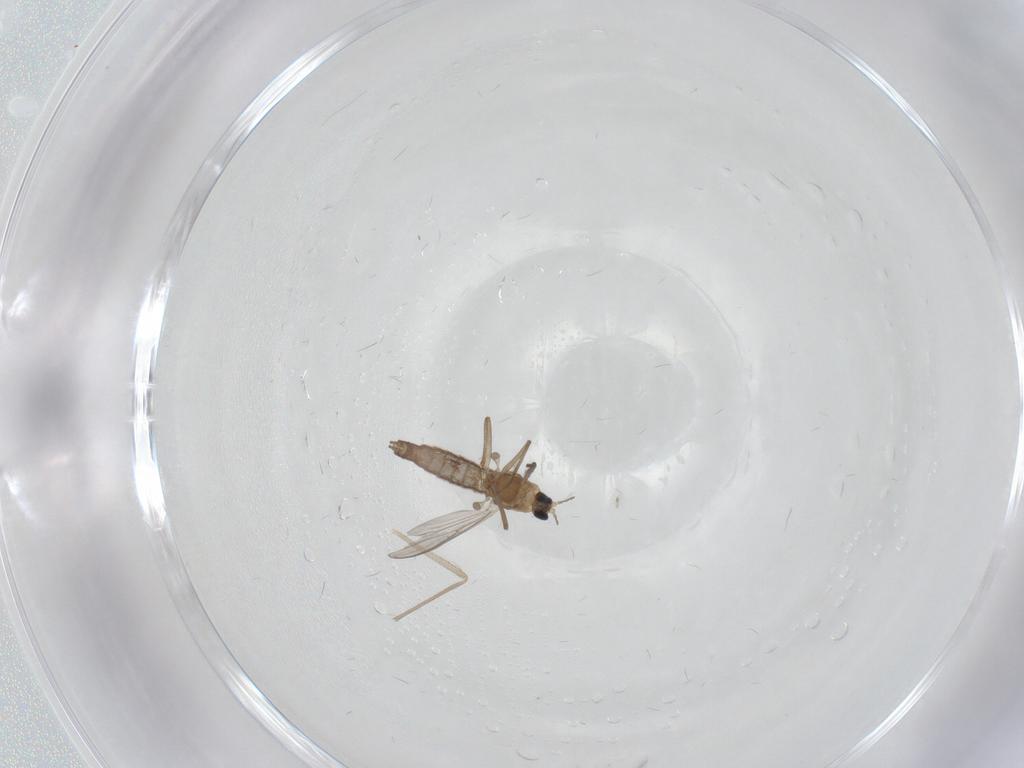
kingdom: Animalia
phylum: Arthropoda
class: Insecta
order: Diptera
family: Chironomidae
